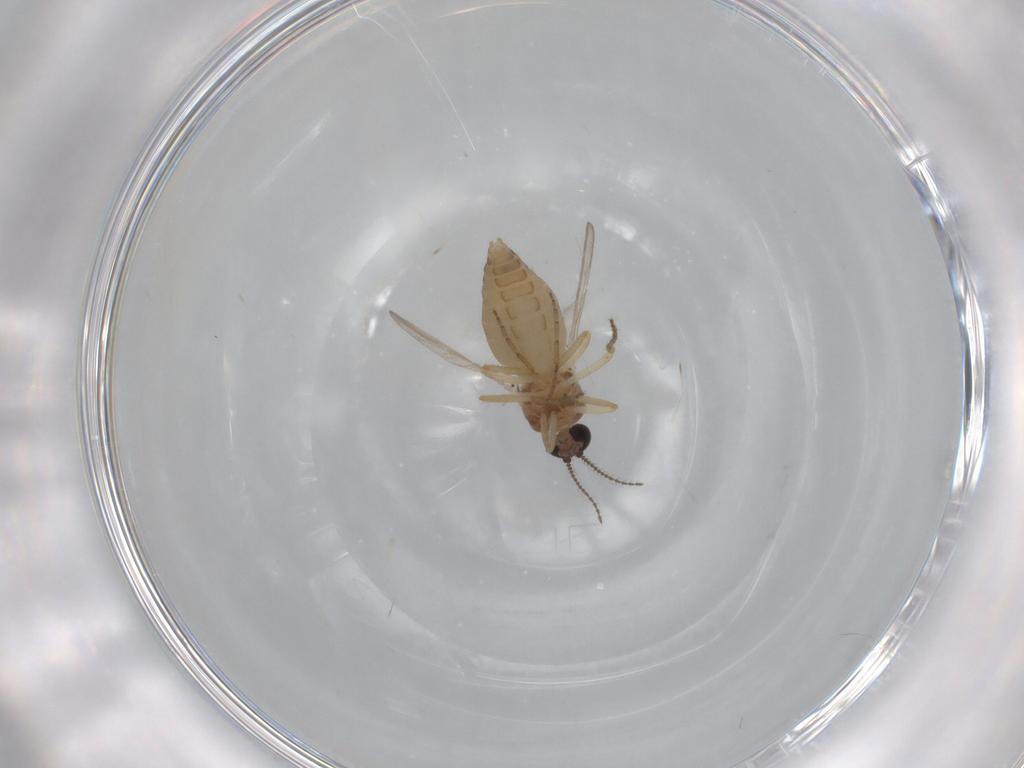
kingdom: Animalia
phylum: Arthropoda
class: Insecta
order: Diptera
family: Ceratopogonidae
